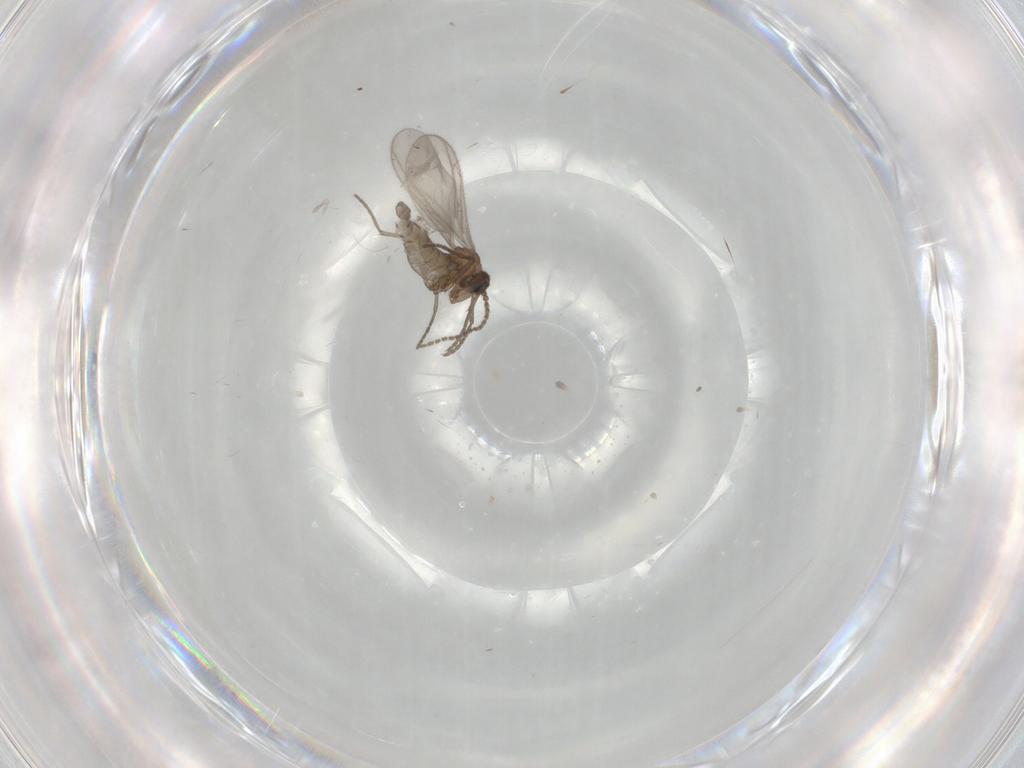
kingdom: Animalia
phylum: Arthropoda
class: Insecta
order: Diptera
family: Sciaridae
